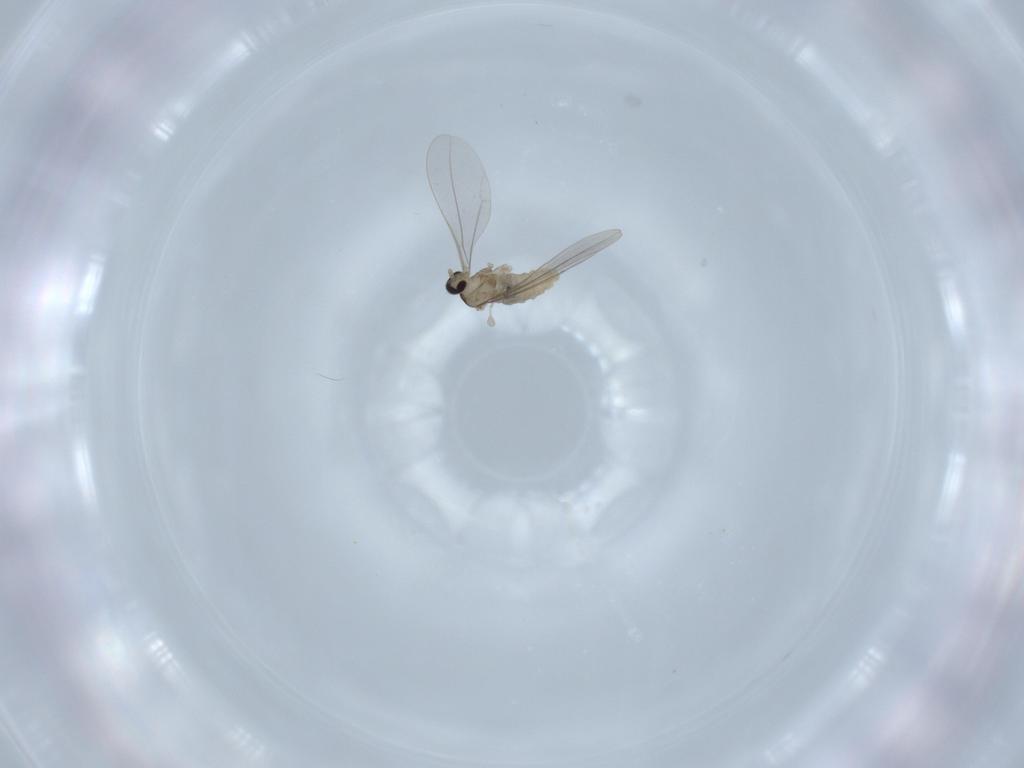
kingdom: Animalia
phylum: Arthropoda
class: Insecta
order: Diptera
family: Cecidomyiidae
